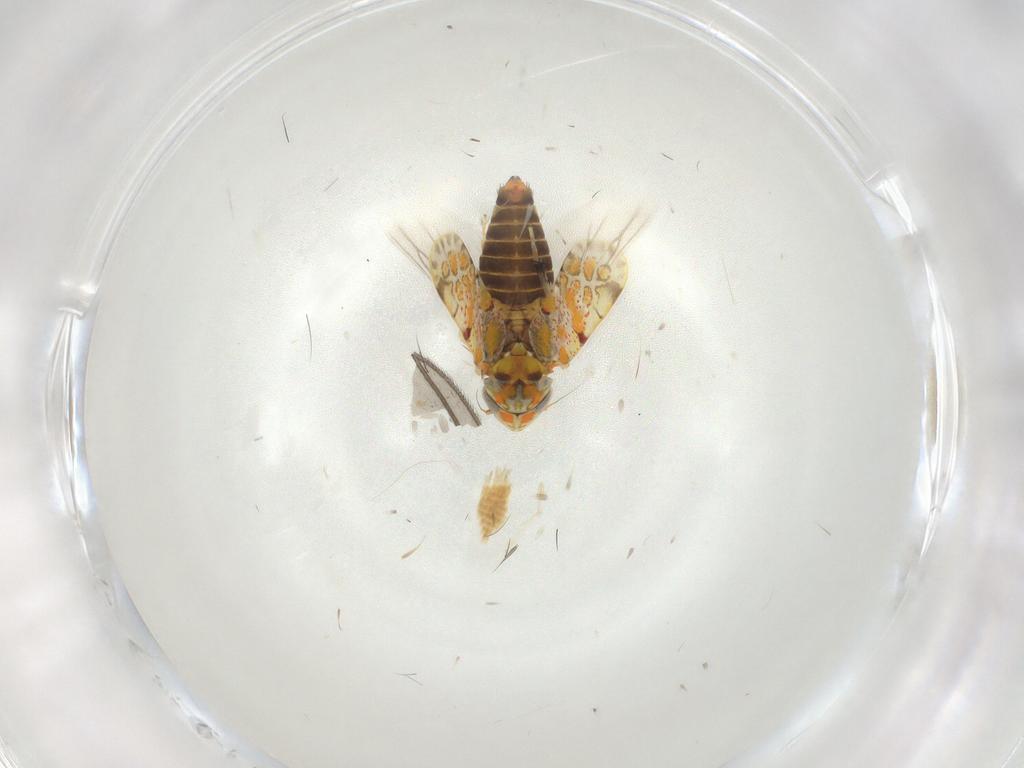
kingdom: Animalia
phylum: Arthropoda
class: Insecta
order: Hemiptera
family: Cicadellidae
